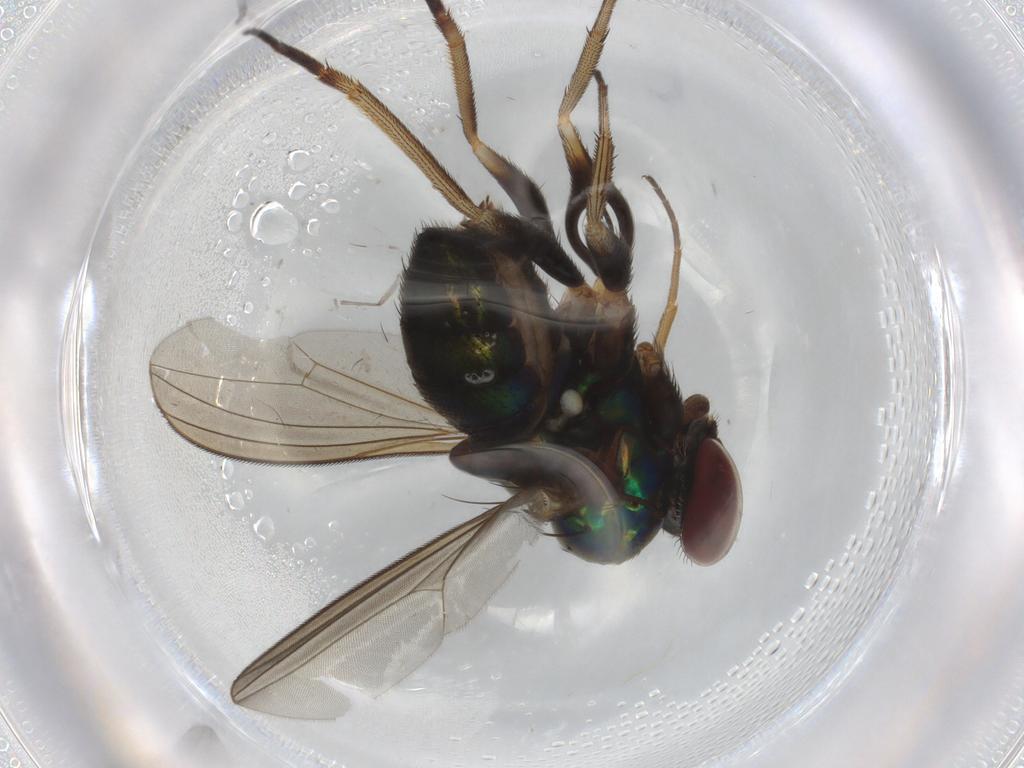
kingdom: Animalia
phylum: Arthropoda
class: Insecta
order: Diptera
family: Sciaridae
